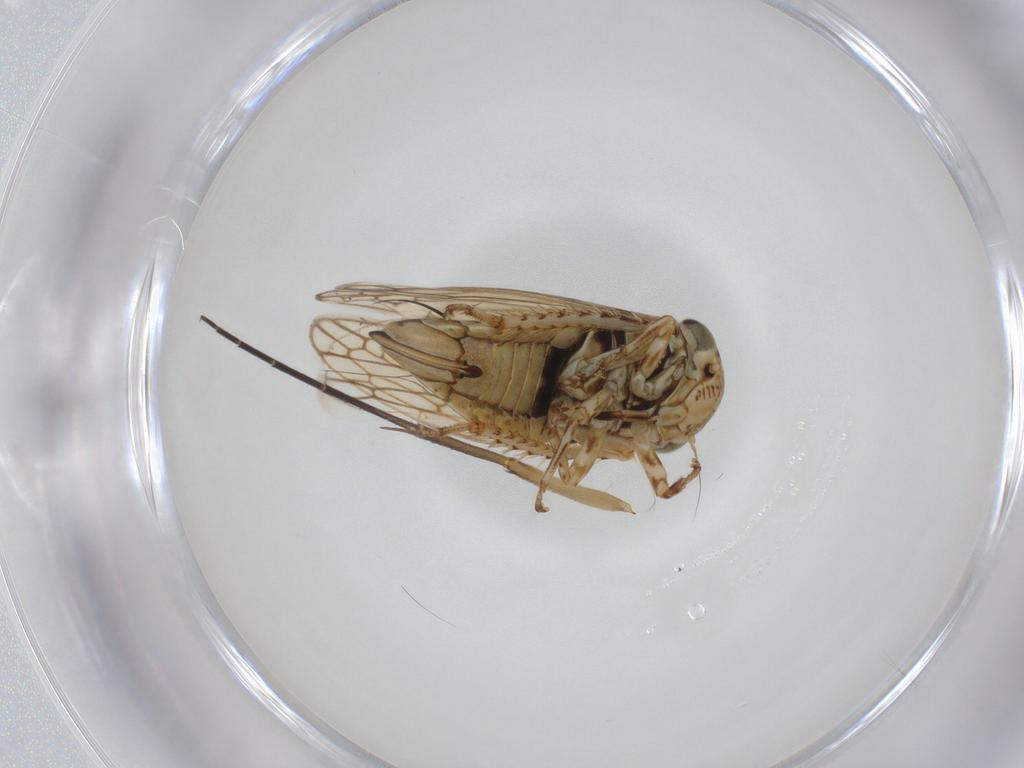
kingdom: Animalia
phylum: Arthropoda
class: Insecta
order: Hemiptera
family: Cicadellidae
